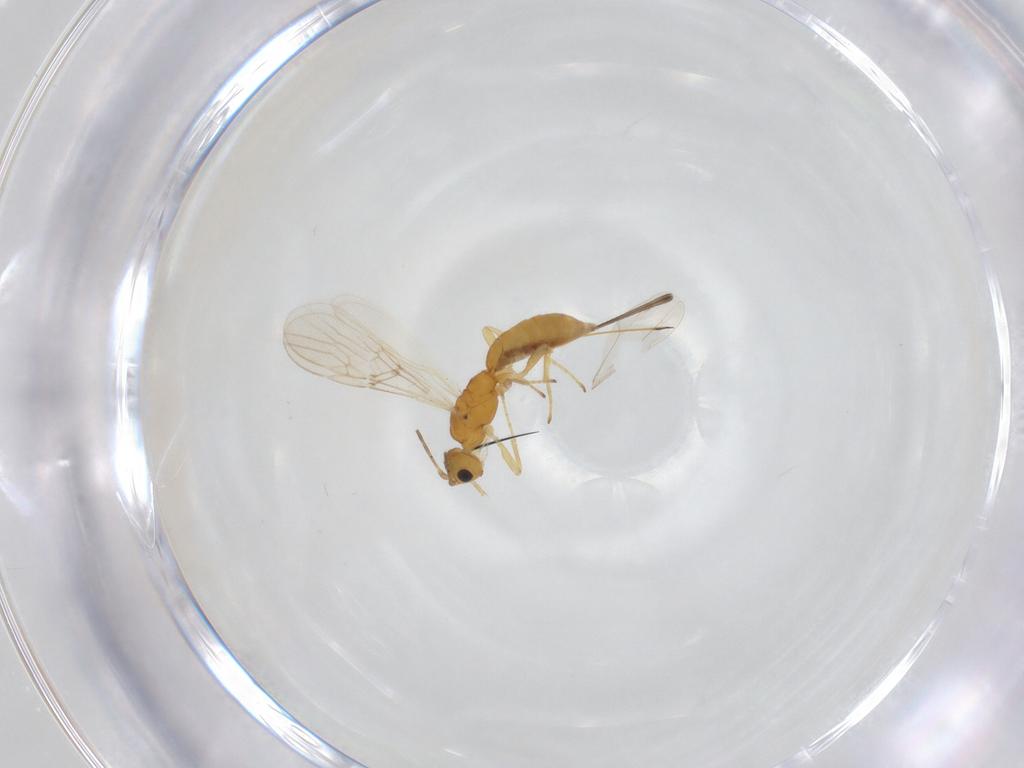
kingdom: Animalia
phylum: Arthropoda
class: Insecta
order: Hymenoptera
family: Braconidae
